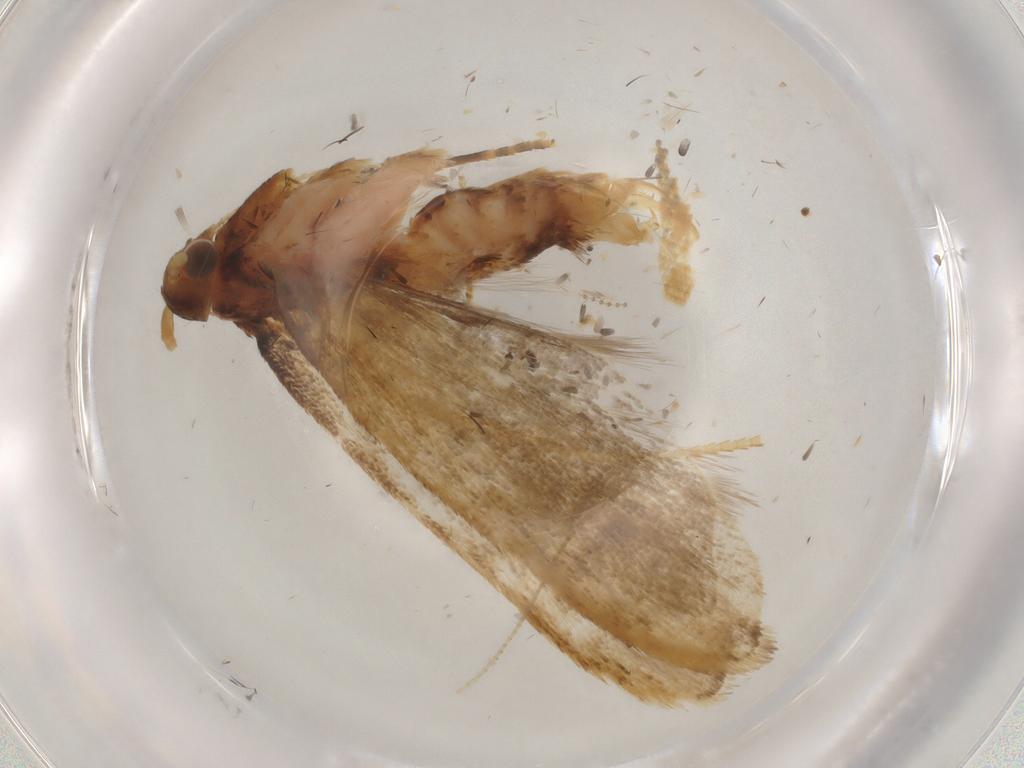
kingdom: Animalia
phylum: Arthropoda
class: Insecta
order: Lepidoptera
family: Lecithoceridae
